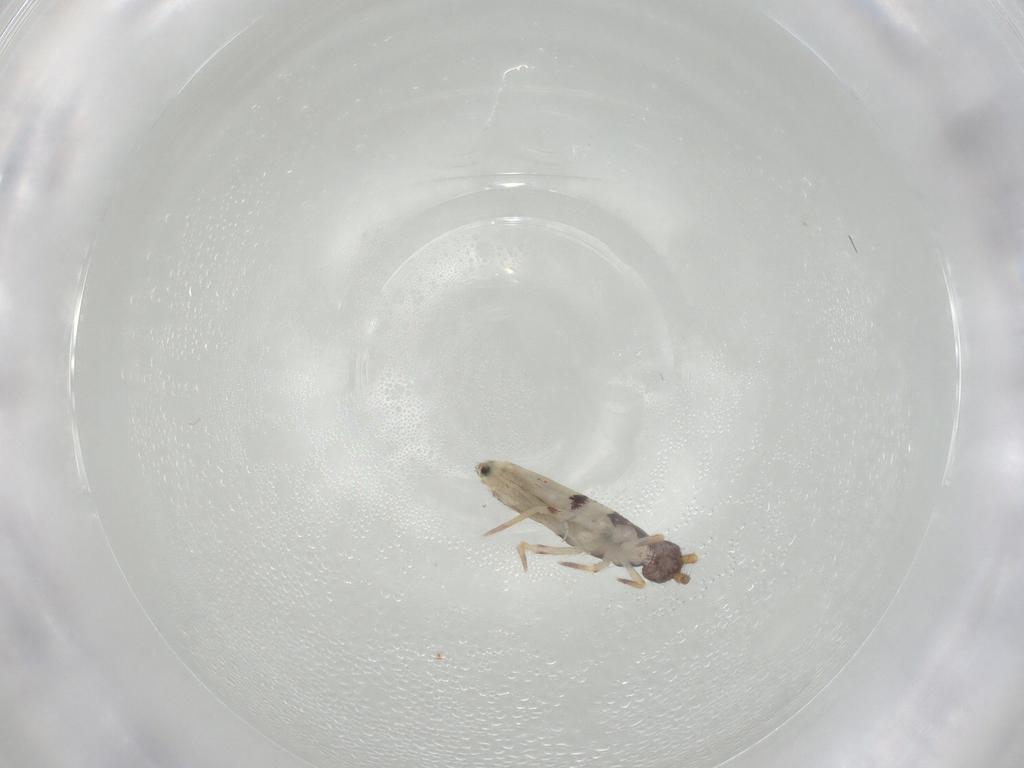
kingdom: Animalia
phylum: Arthropoda
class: Collembola
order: Entomobryomorpha
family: Entomobryidae
